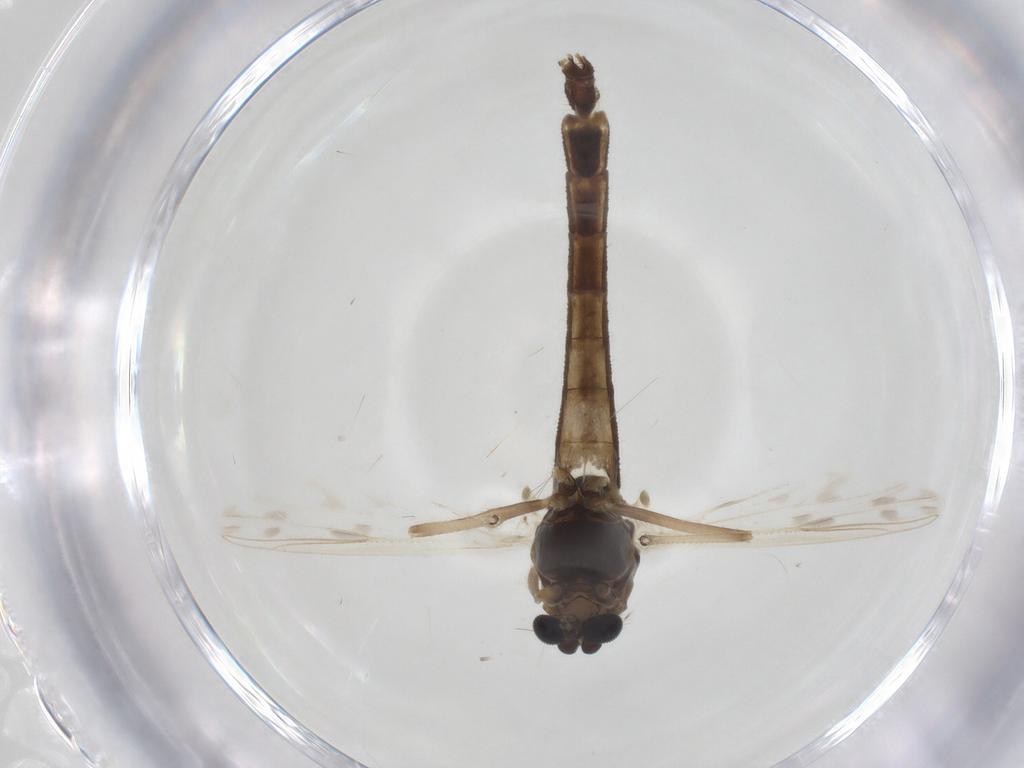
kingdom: Animalia
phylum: Arthropoda
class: Insecta
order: Diptera
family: Chironomidae
